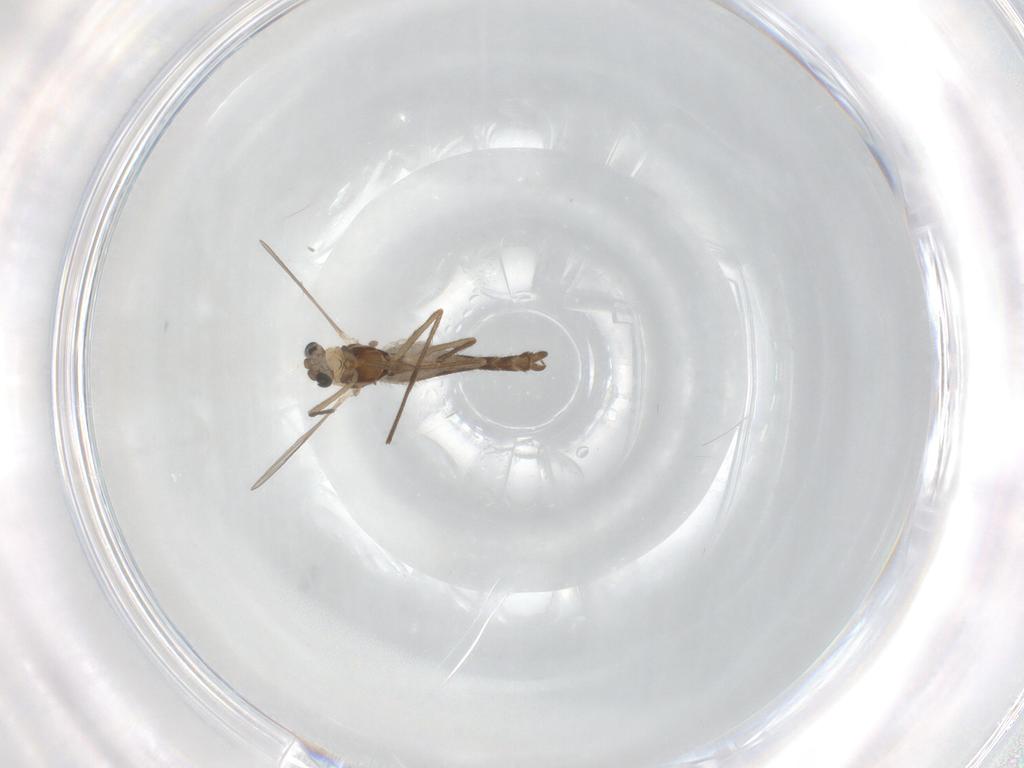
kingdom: Animalia
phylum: Arthropoda
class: Insecta
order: Diptera
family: Chironomidae
